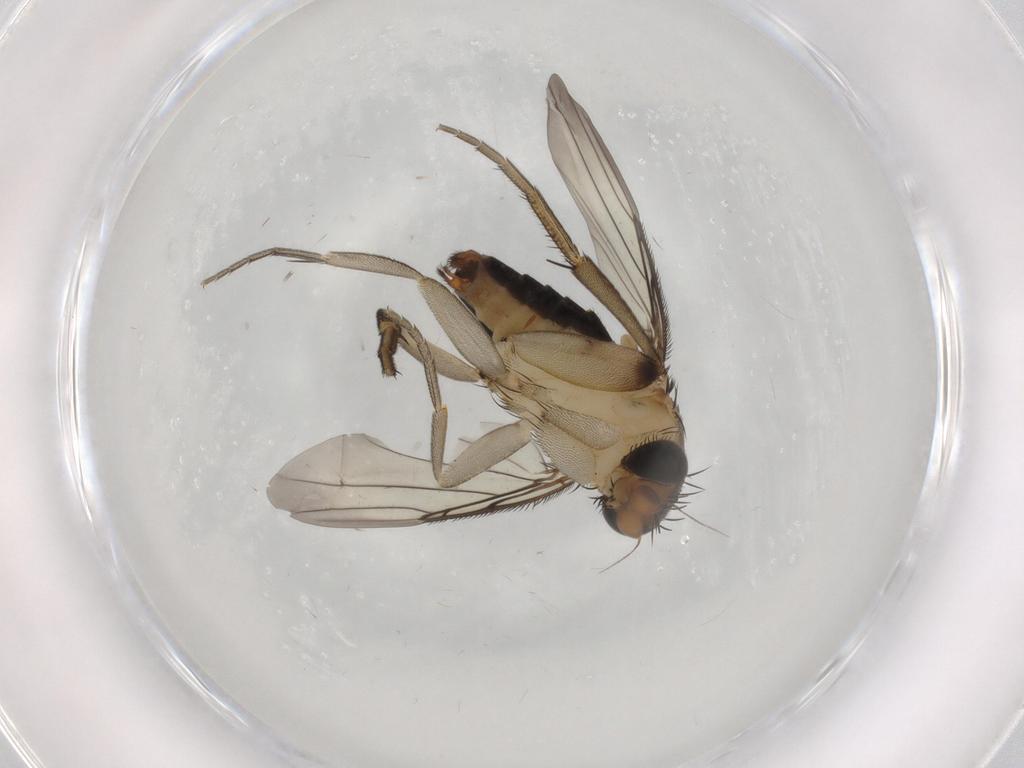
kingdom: Animalia
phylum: Arthropoda
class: Insecta
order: Diptera
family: Phoridae
